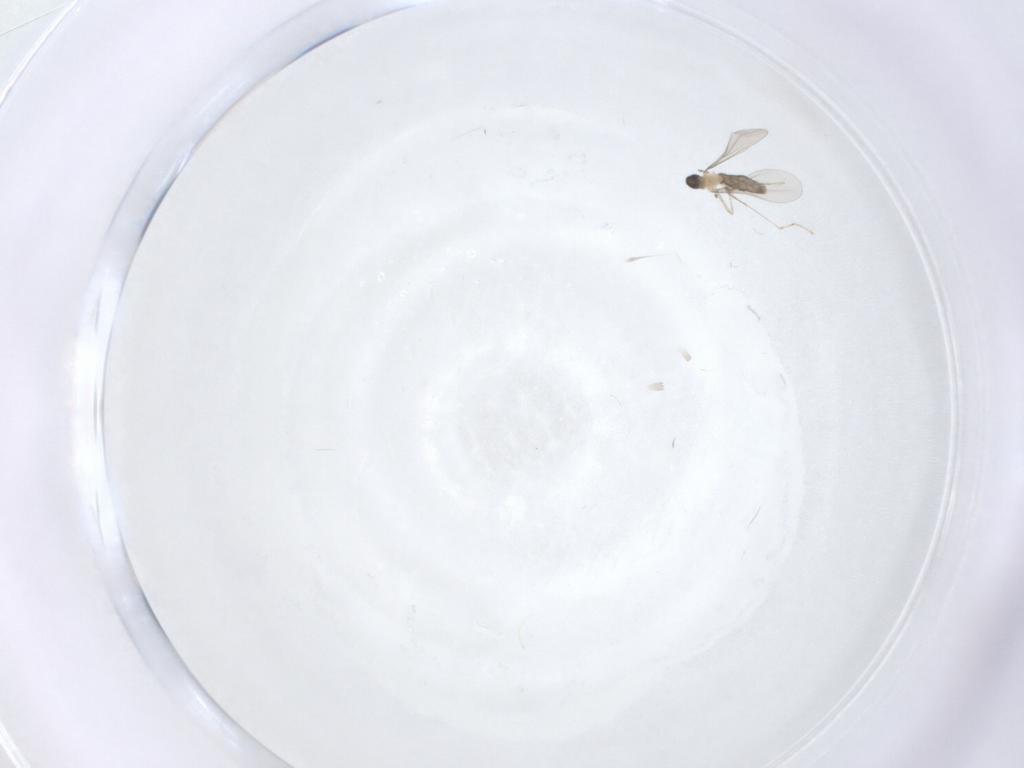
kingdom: Animalia
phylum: Arthropoda
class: Insecta
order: Diptera
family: Cecidomyiidae
